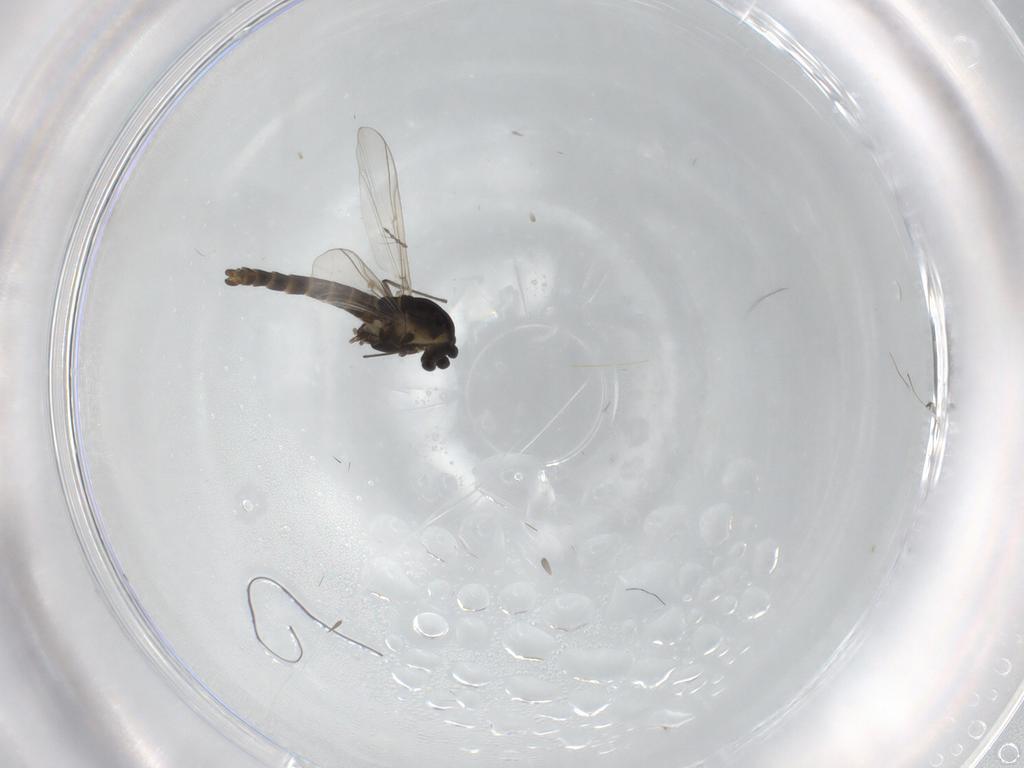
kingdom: Animalia
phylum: Arthropoda
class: Insecta
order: Diptera
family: Chironomidae
